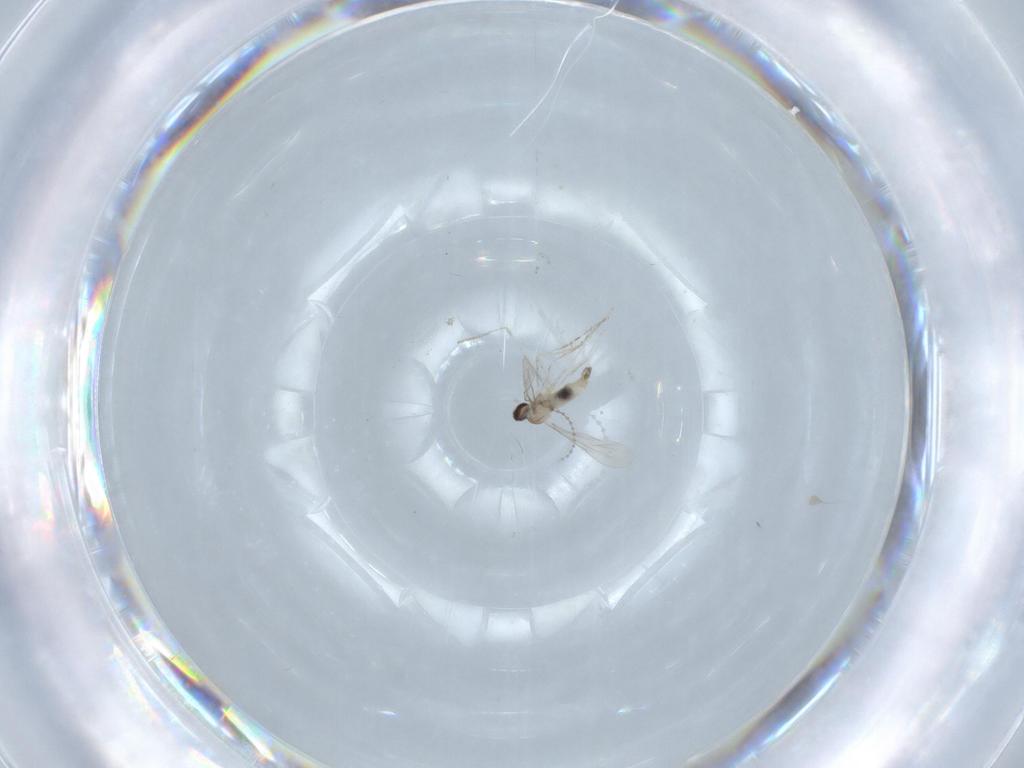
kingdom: Animalia
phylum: Arthropoda
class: Insecta
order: Diptera
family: Cecidomyiidae
